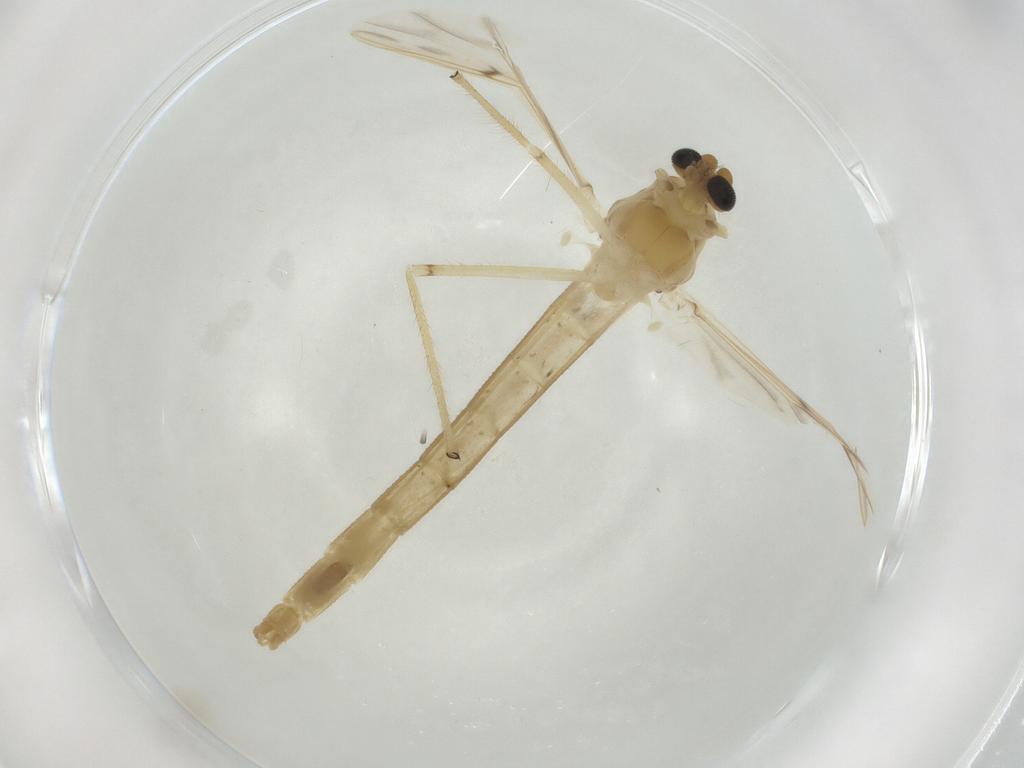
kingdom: Animalia
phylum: Arthropoda
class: Insecta
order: Diptera
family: Chironomidae
